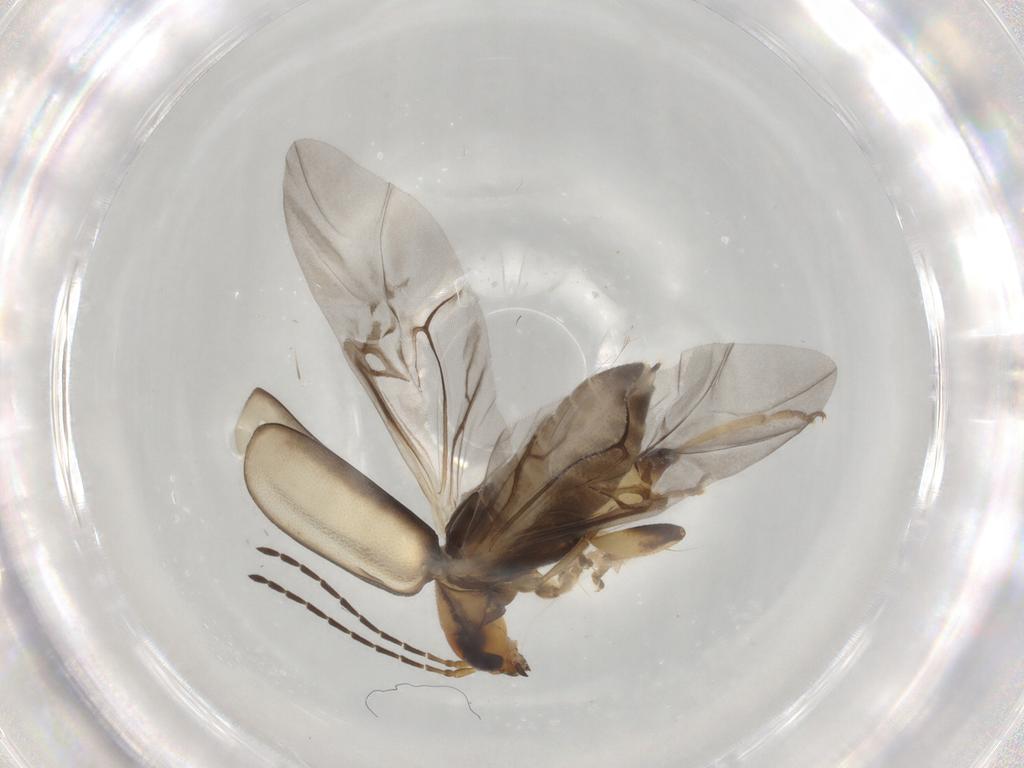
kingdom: Animalia
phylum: Arthropoda
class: Insecta
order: Coleoptera
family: Chrysomelidae
